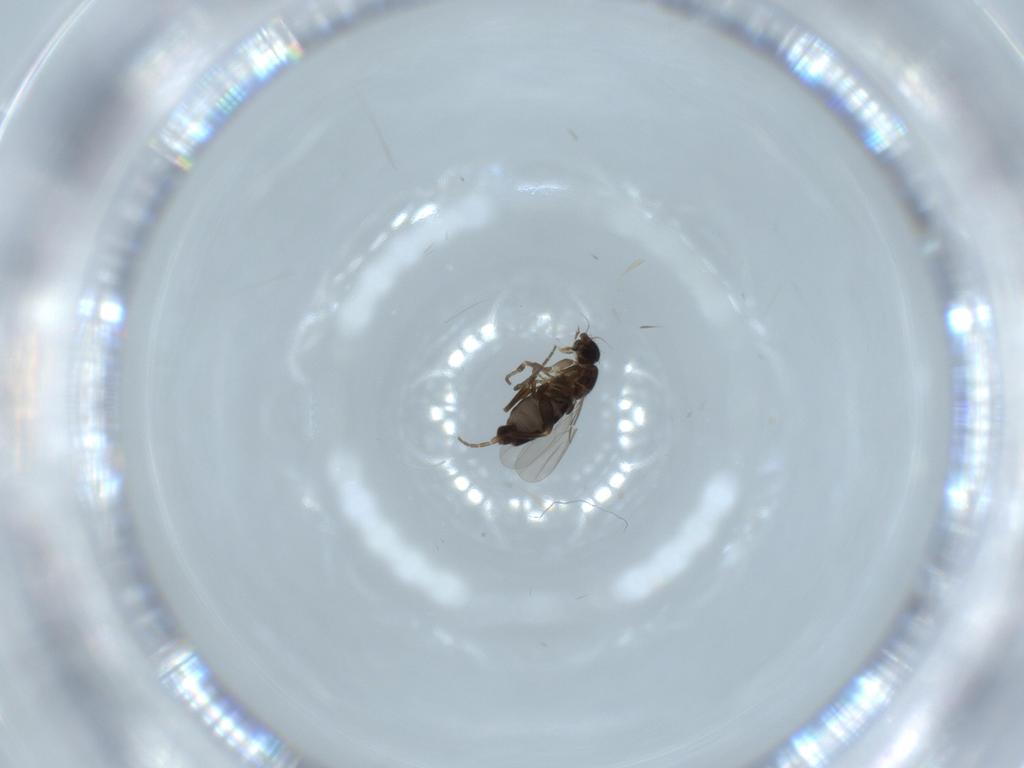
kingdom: Animalia
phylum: Arthropoda
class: Insecta
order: Diptera
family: Phoridae
